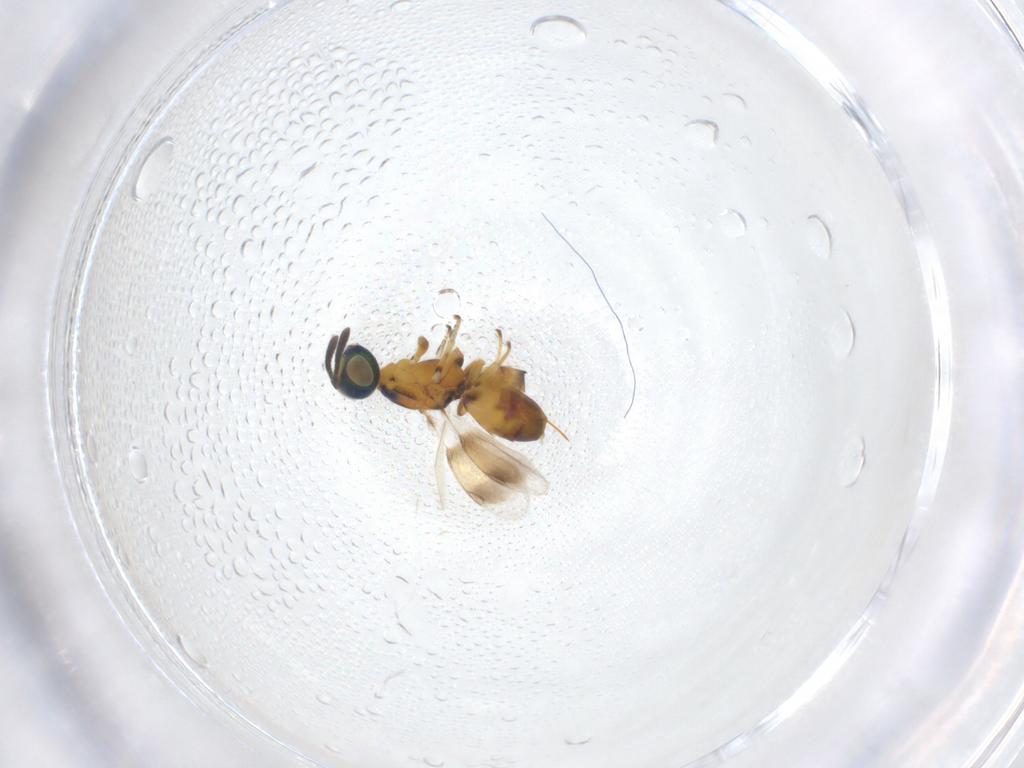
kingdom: Animalia
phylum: Arthropoda
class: Insecta
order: Hymenoptera
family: Pteromalidae
